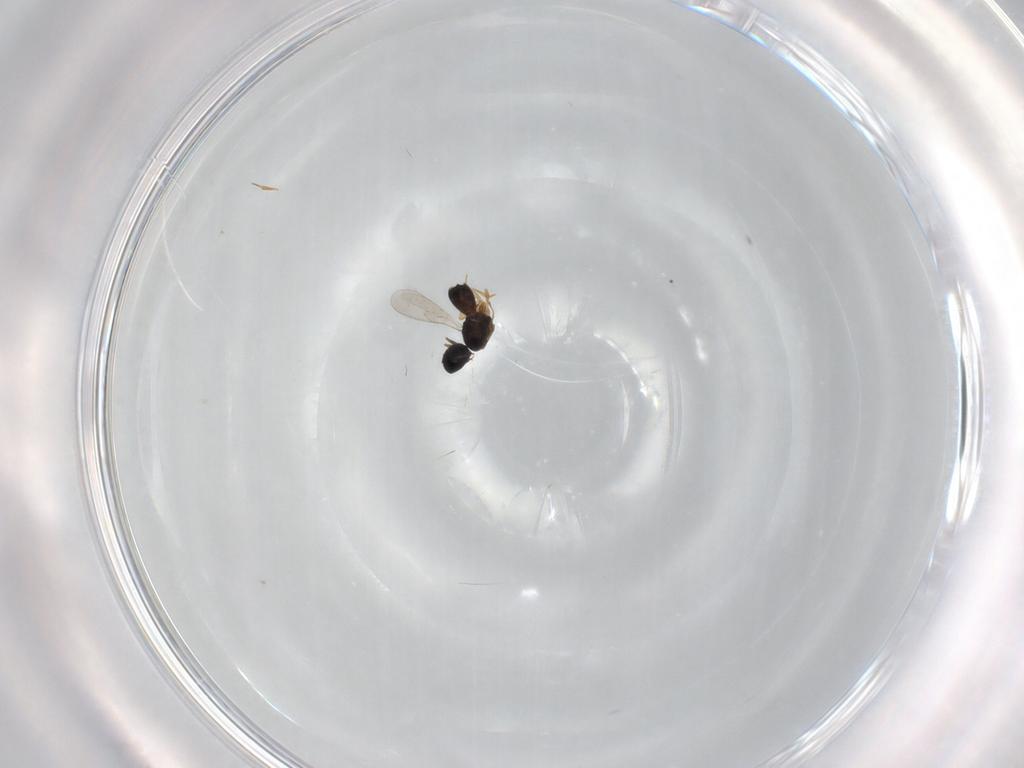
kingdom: Animalia
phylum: Arthropoda
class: Insecta
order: Hymenoptera
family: Scelionidae
